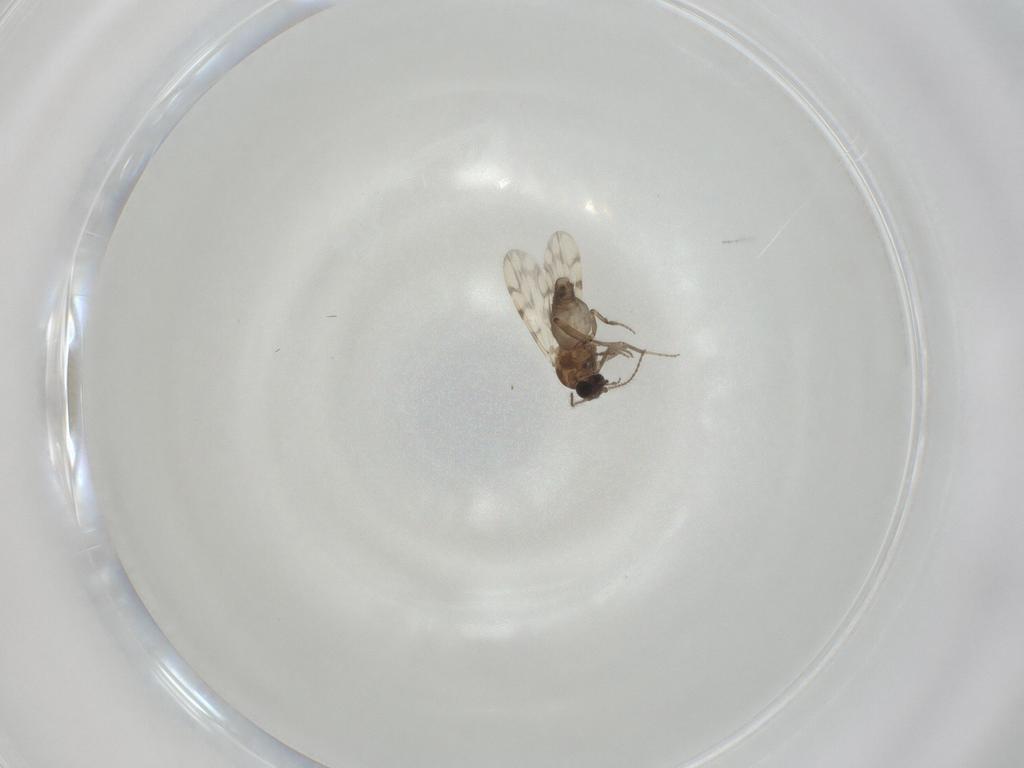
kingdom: Animalia
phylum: Arthropoda
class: Insecta
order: Diptera
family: Ceratopogonidae
